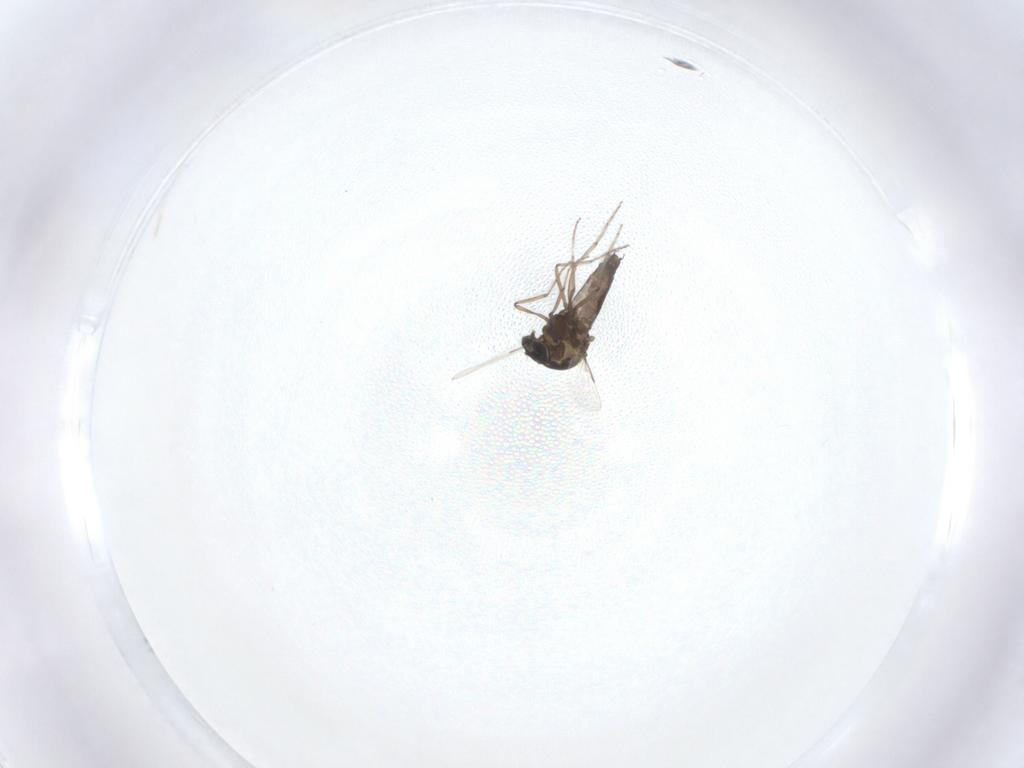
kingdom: Animalia
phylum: Arthropoda
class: Insecta
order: Diptera
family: Ceratopogonidae
